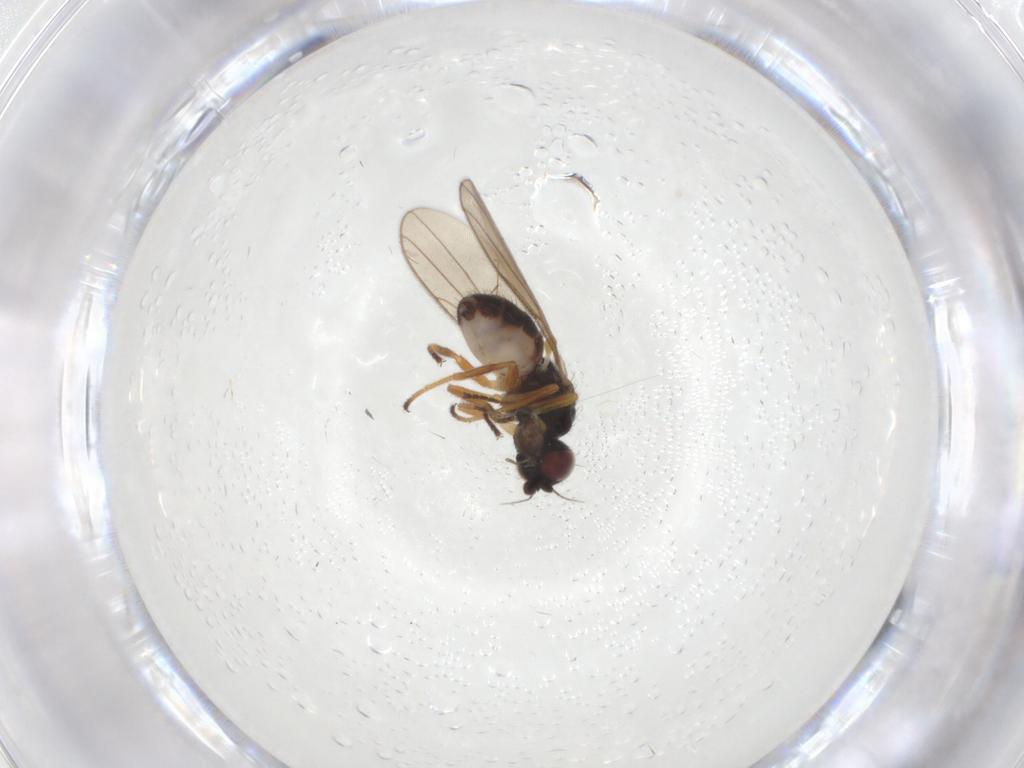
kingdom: Animalia
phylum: Arthropoda
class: Insecta
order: Diptera
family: Chloropidae
